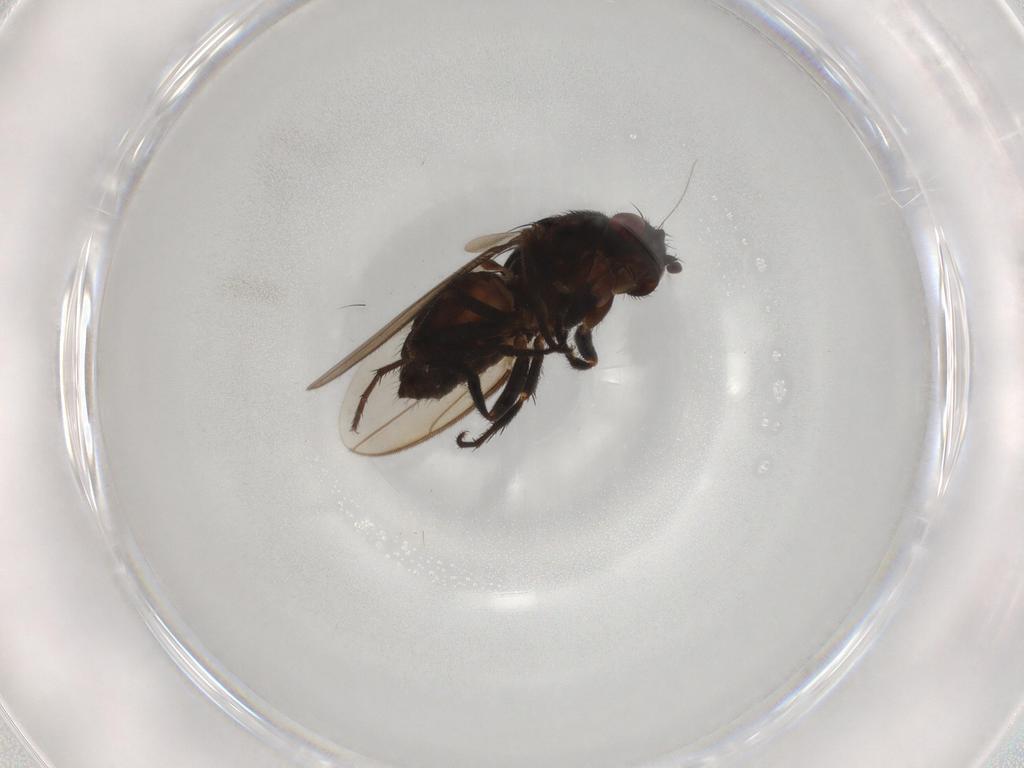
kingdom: Animalia
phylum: Arthropoda
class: Insecta
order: Diptera
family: Sphaeroceridae
